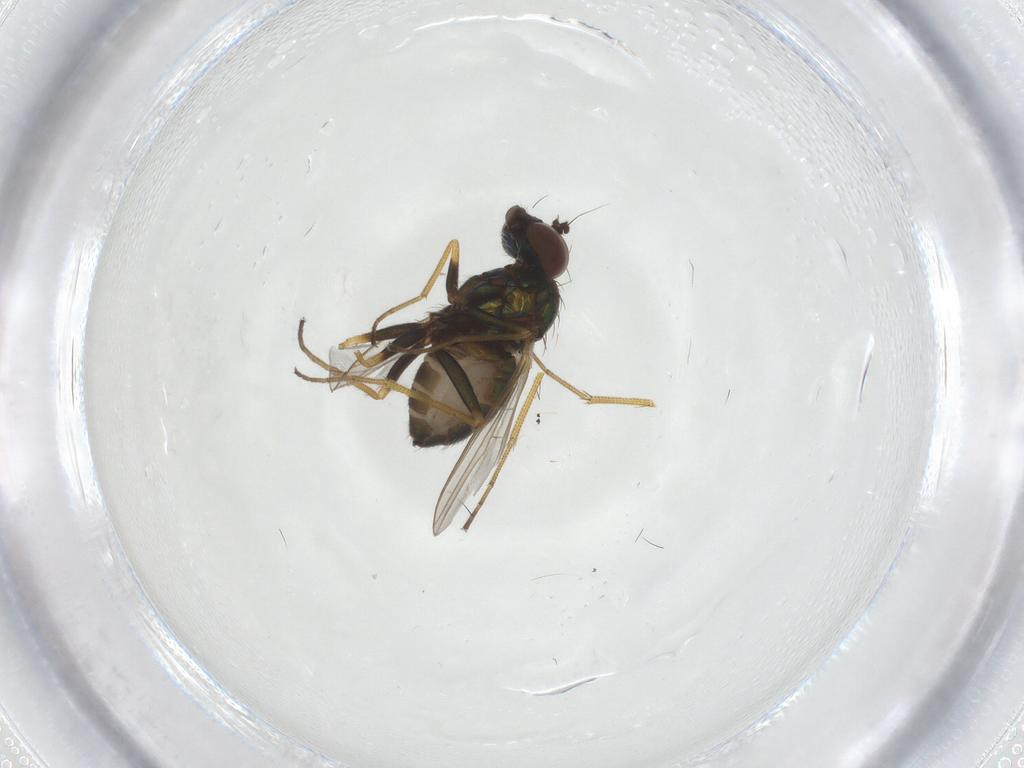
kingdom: Animalia
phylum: Arthropoda
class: Insecta
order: Diptera
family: Dolichopodidae
